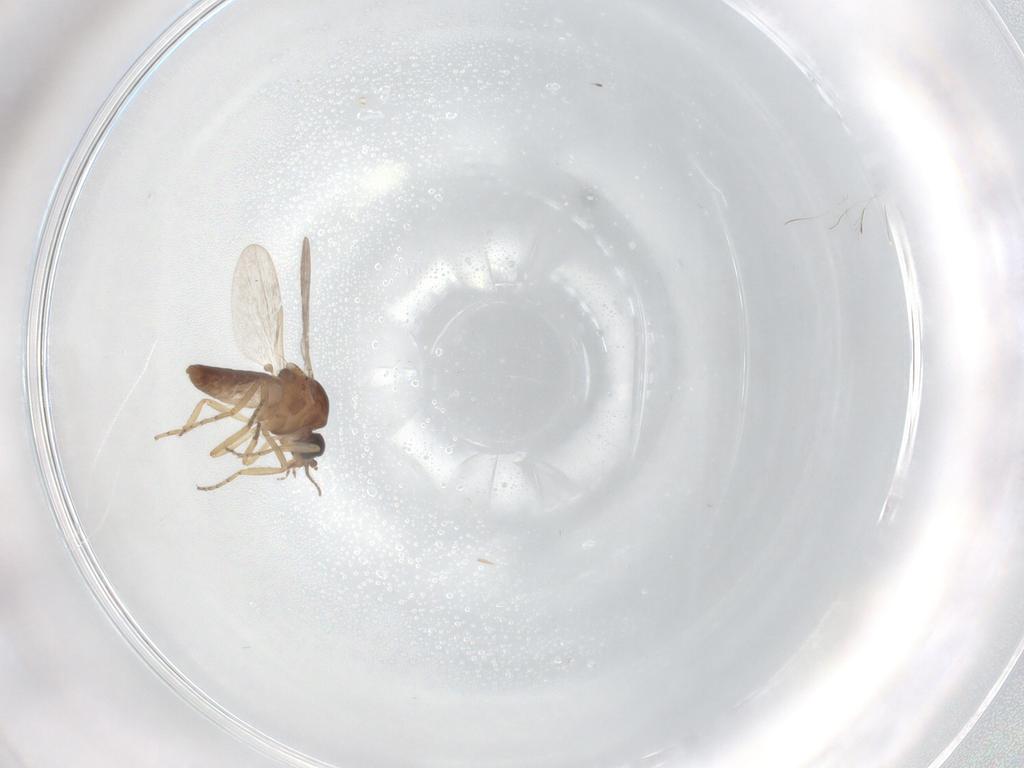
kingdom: Animalia
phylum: Arthropoda
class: Insecta
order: Diptera
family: Ceratopogonidae
